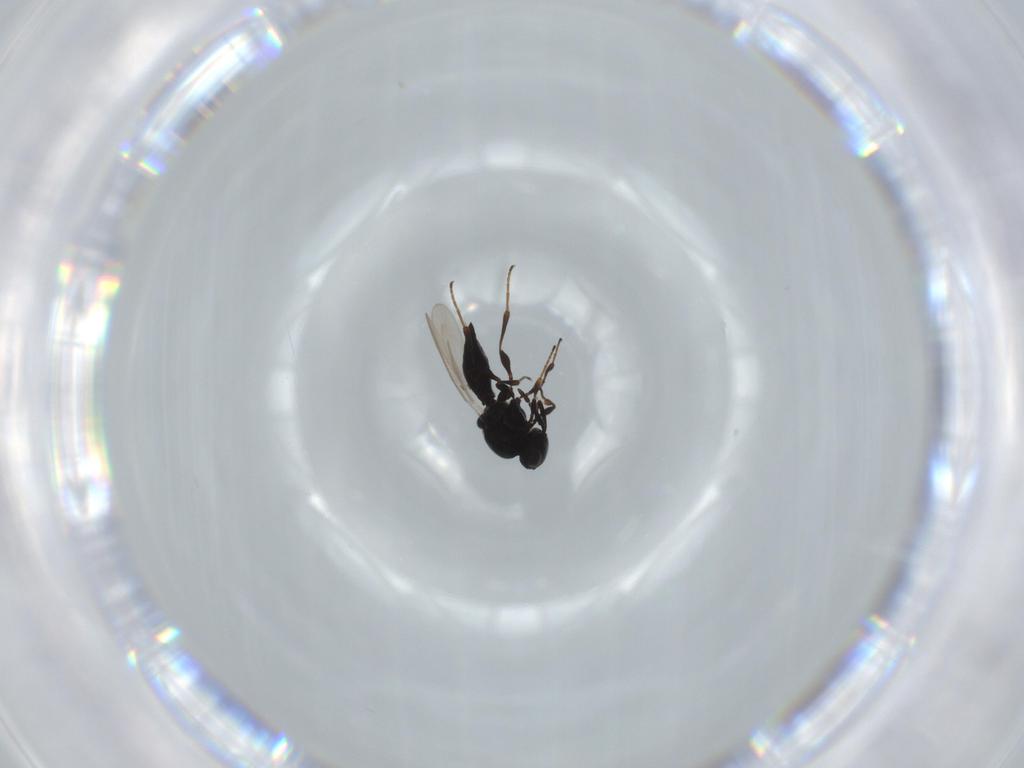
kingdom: Animalia
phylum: Arthropoda
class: Insecta
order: Hymenoptera
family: Platygastridae
